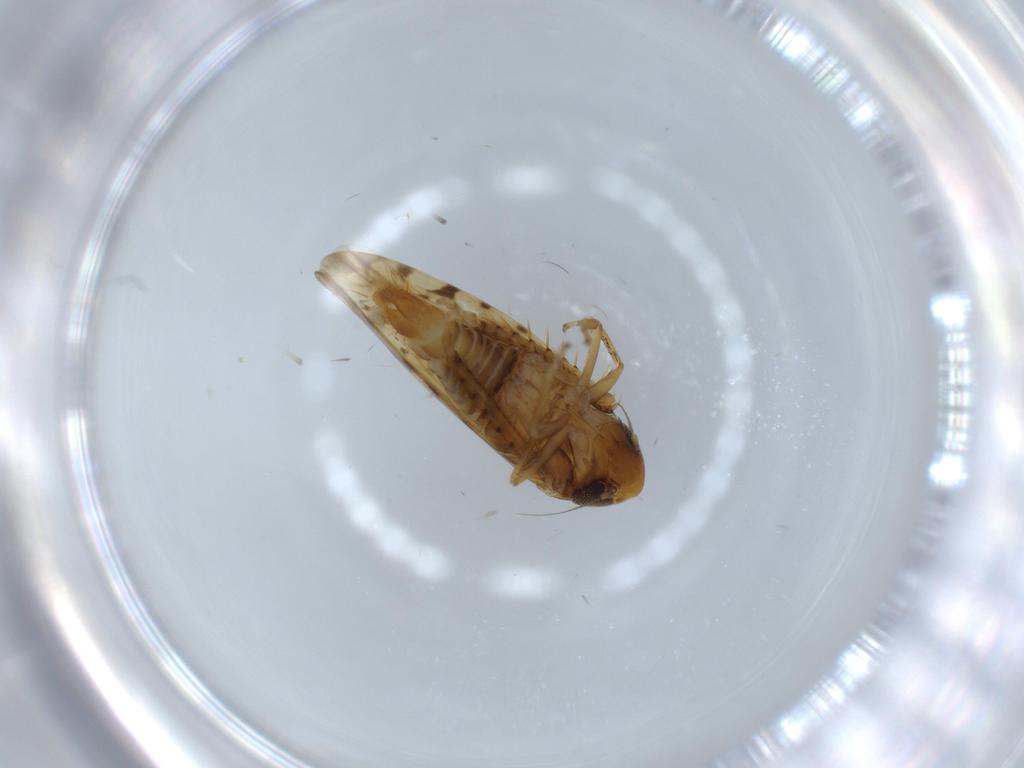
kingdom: Animalia
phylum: Arthropoda
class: Insecta
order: Hemiptera
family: Cicadellidae
